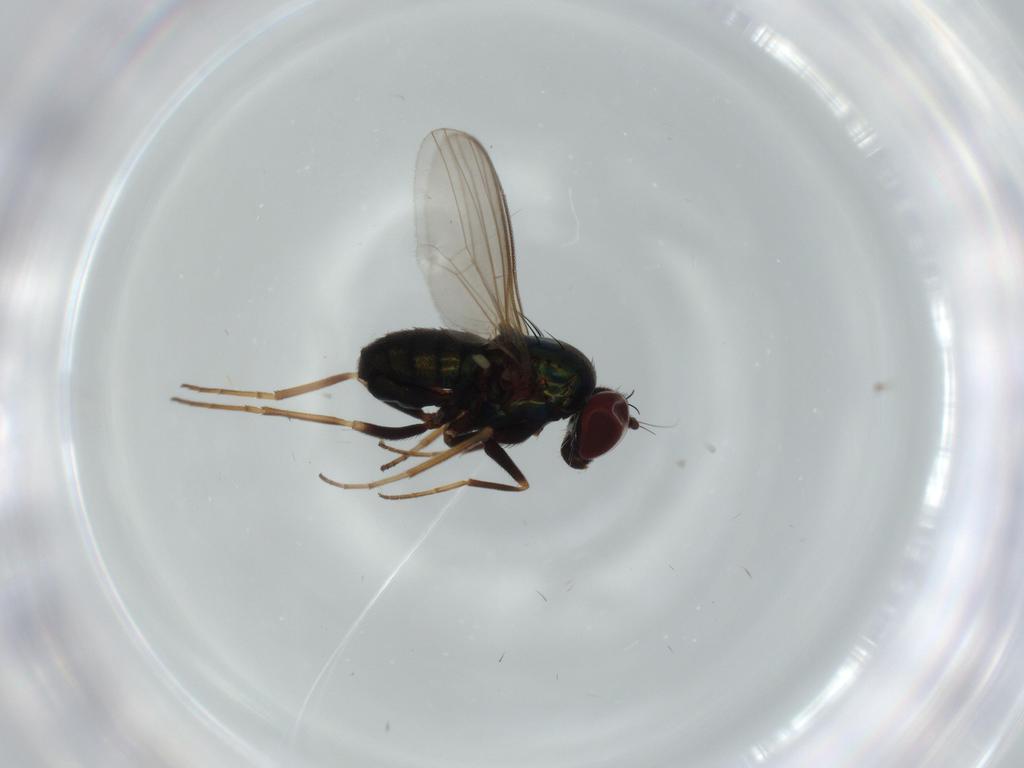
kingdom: Animalia
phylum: Arthropoda
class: Insecta
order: Diptera
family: Dolichopodidae
